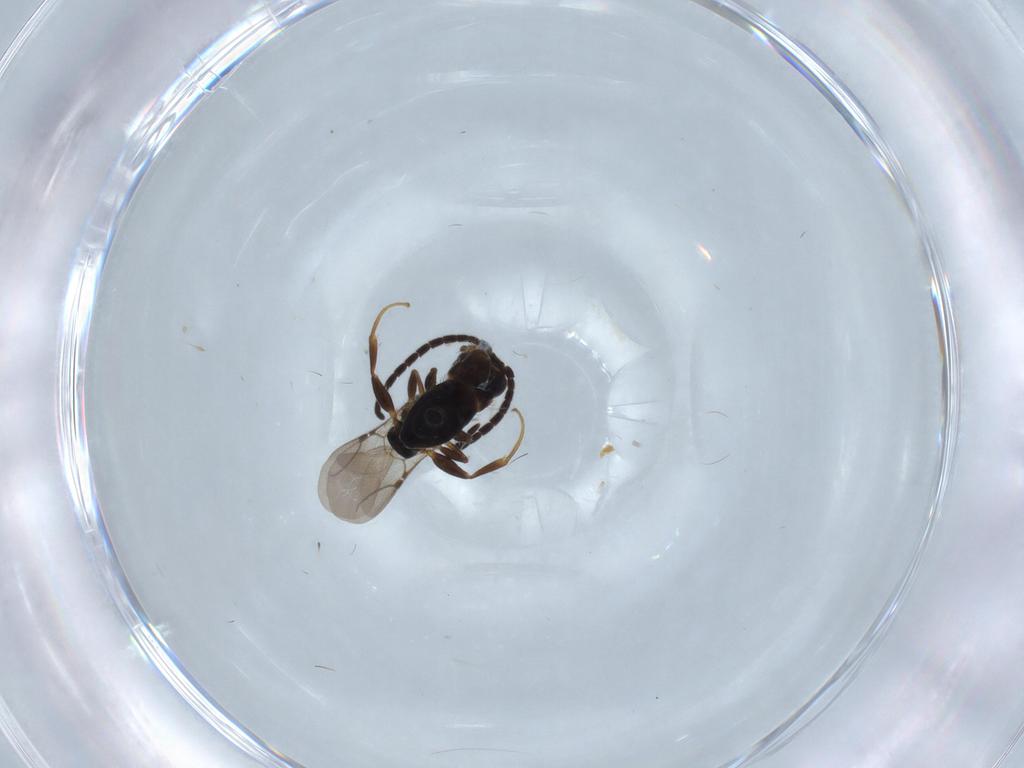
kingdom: Animalia
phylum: Arthropoda
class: Insecta
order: Hymenoptera
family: Bethylidae
